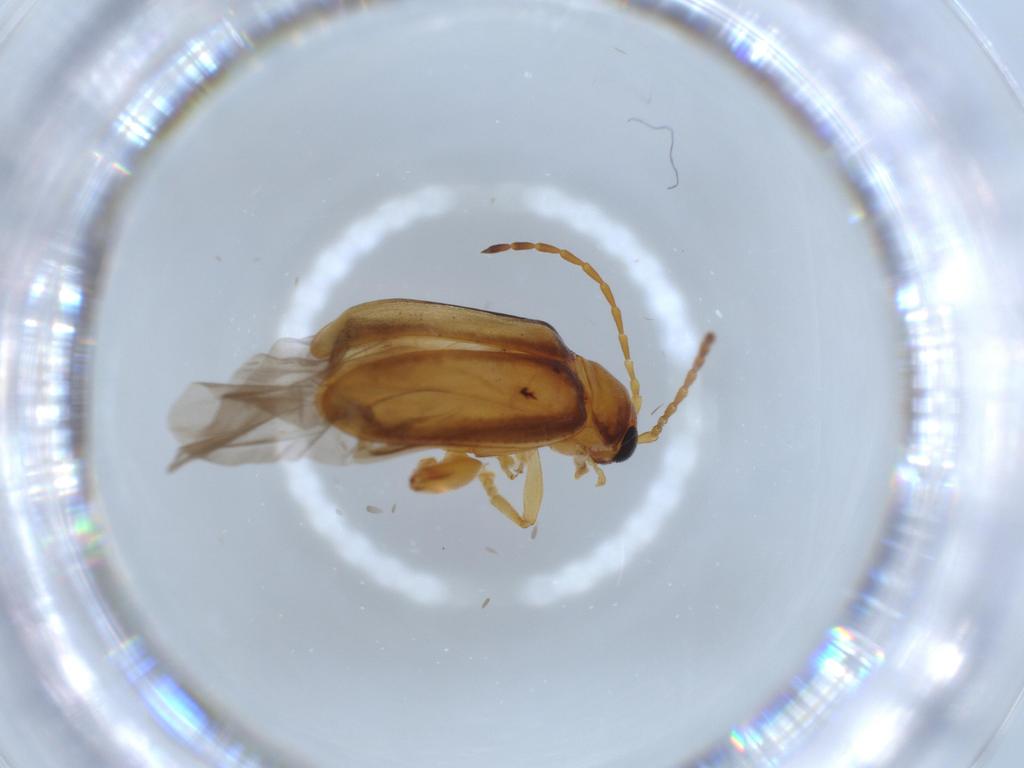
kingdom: Animalia
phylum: Arthropoda
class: Insecta
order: Coleoptera
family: Chrysomelidae
